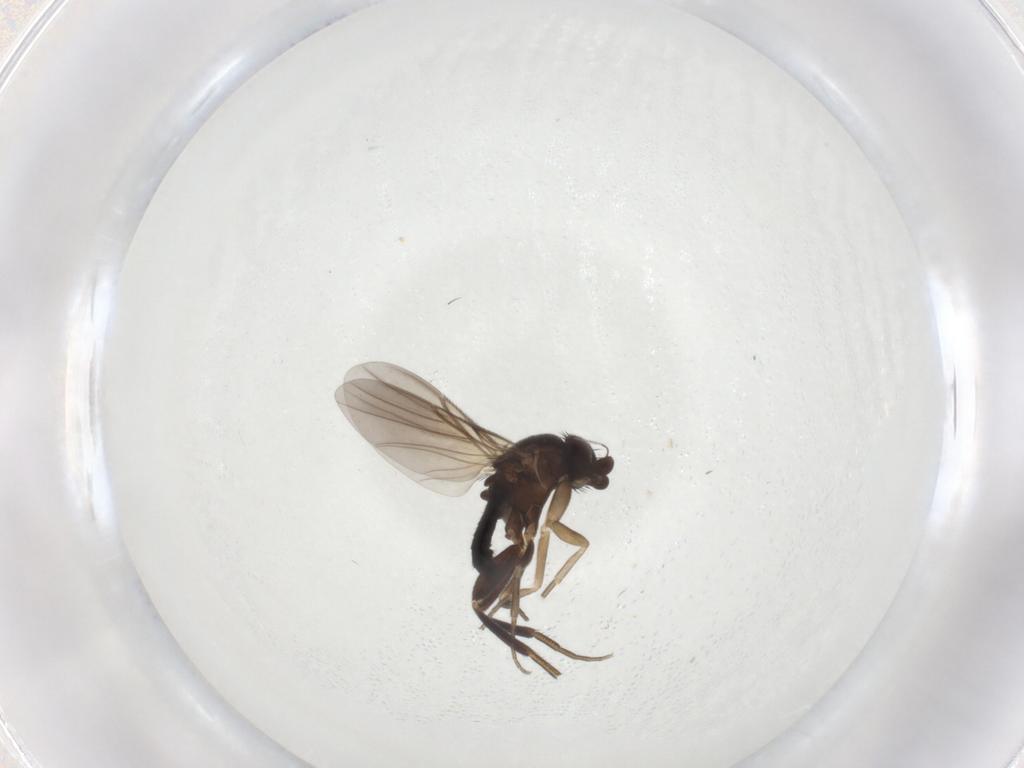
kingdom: Animalia
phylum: Arthropoda
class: Insecta
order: Diptera
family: Phoridae
